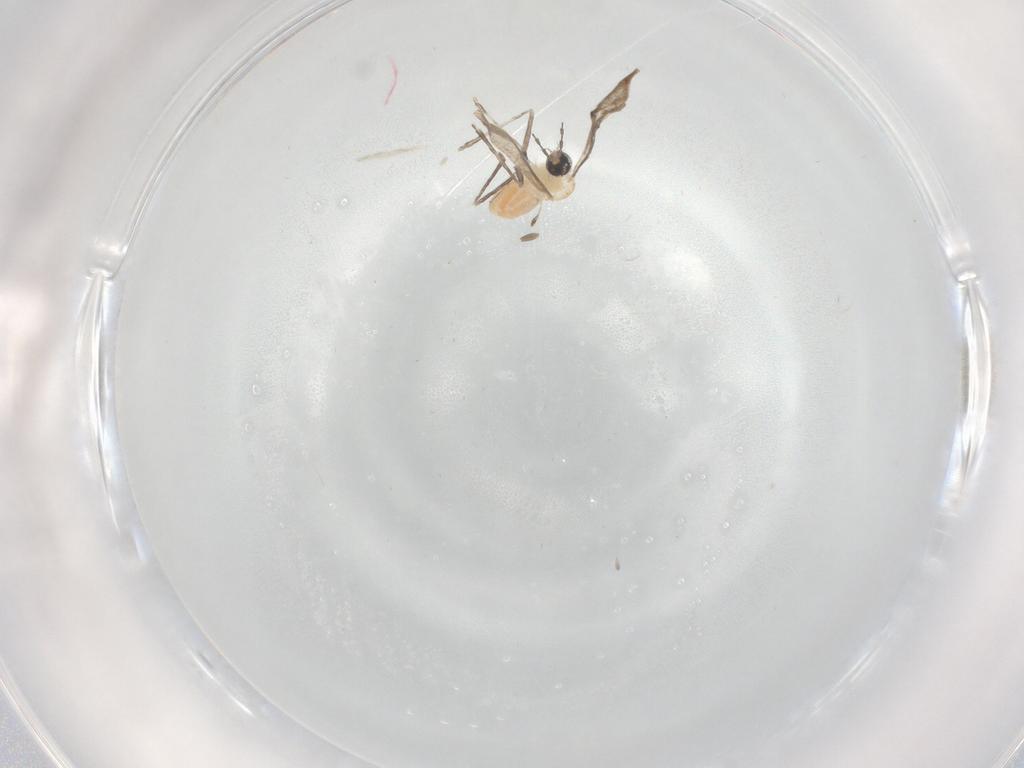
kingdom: Animalia
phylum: Arthropoda
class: Insecta
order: Diptera
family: Cecidomyiidae
